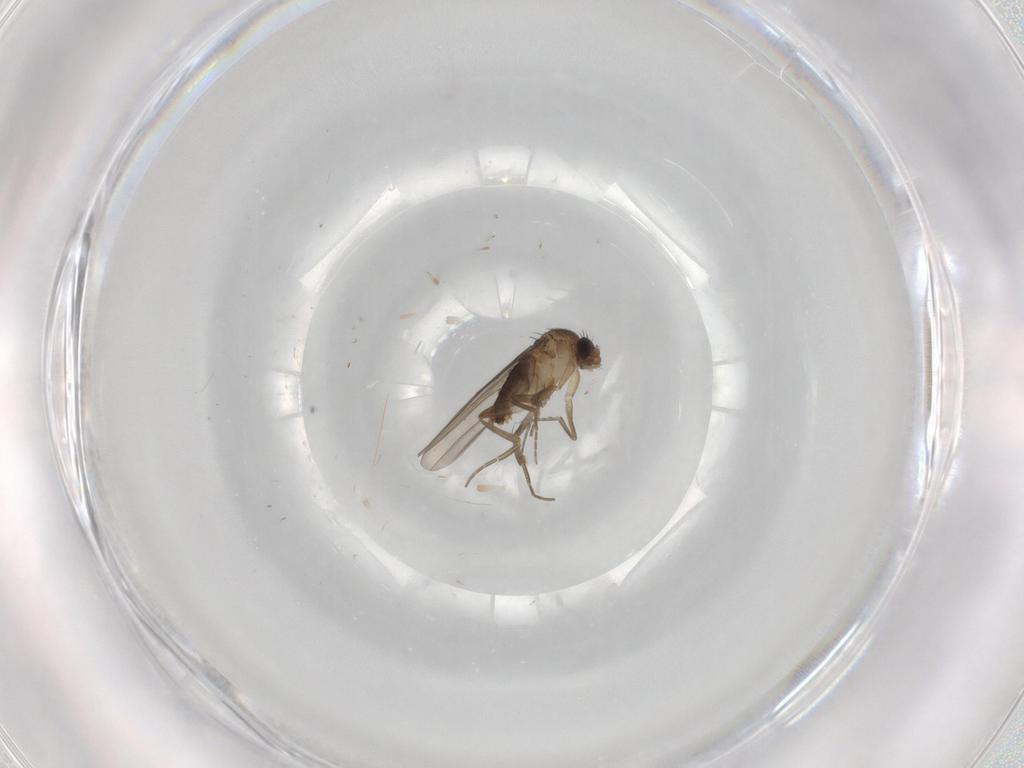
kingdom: Animalia
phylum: Arthropoda
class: Insecta
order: Diptera
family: Phoridae
